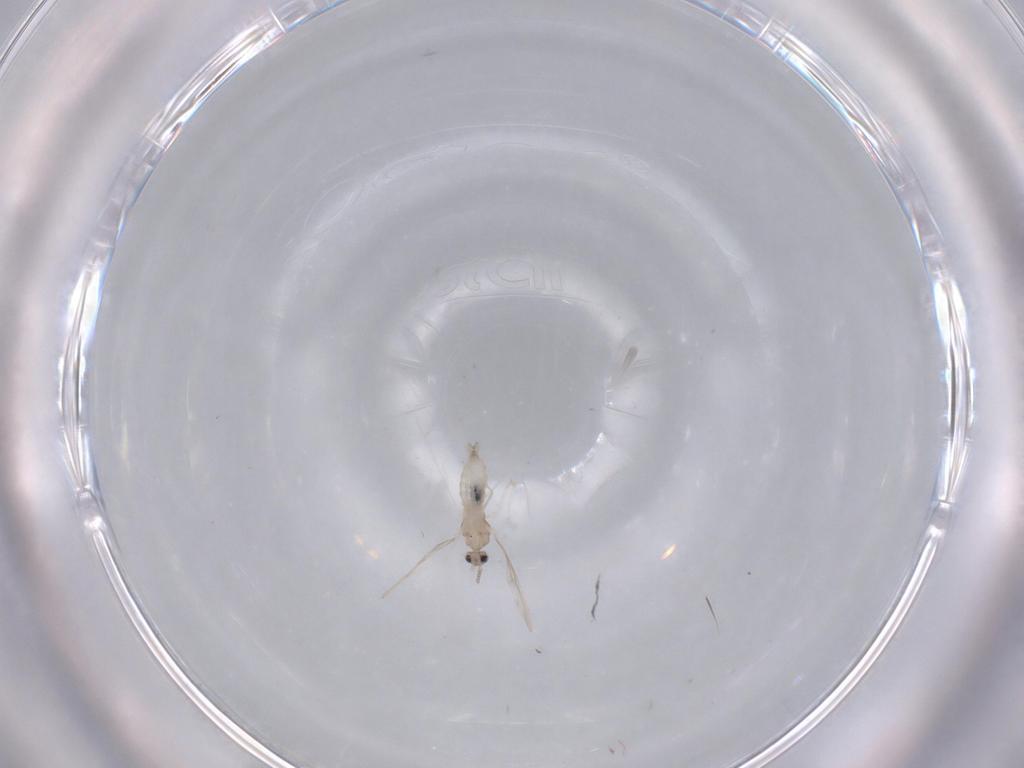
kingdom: Animalia
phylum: Arthropoda
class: Insecta
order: Diptera
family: Cecidomyiidae
